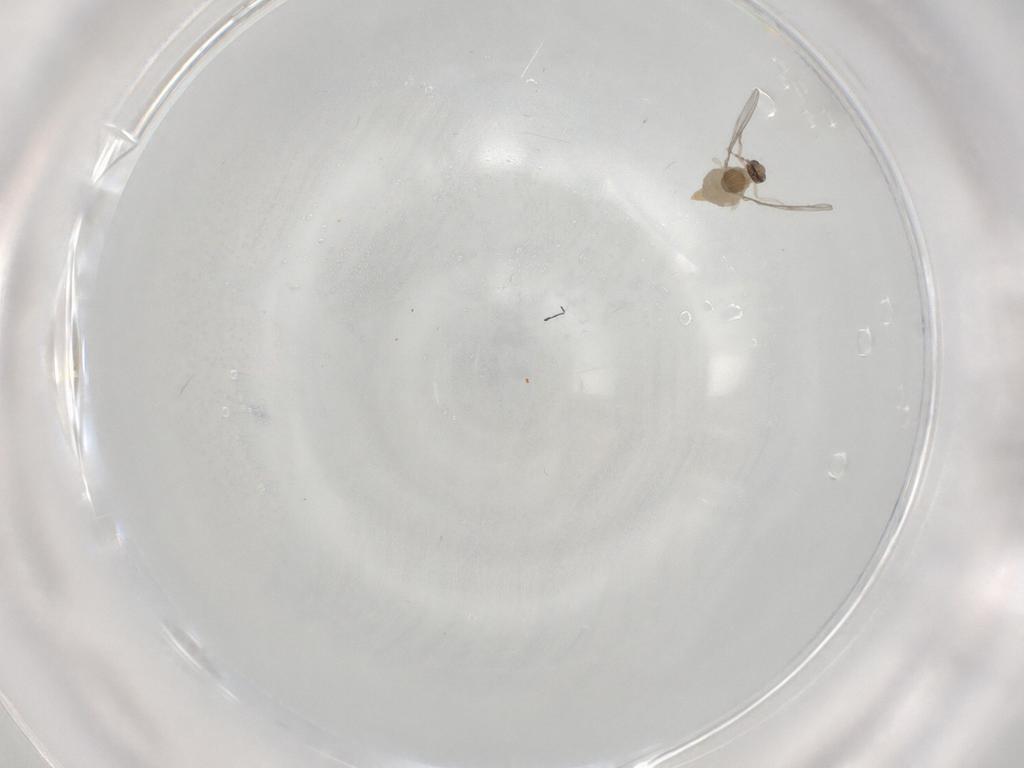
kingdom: Animalia
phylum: Arthropoda
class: Insecta
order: Diptera
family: Cecidomyiidae
